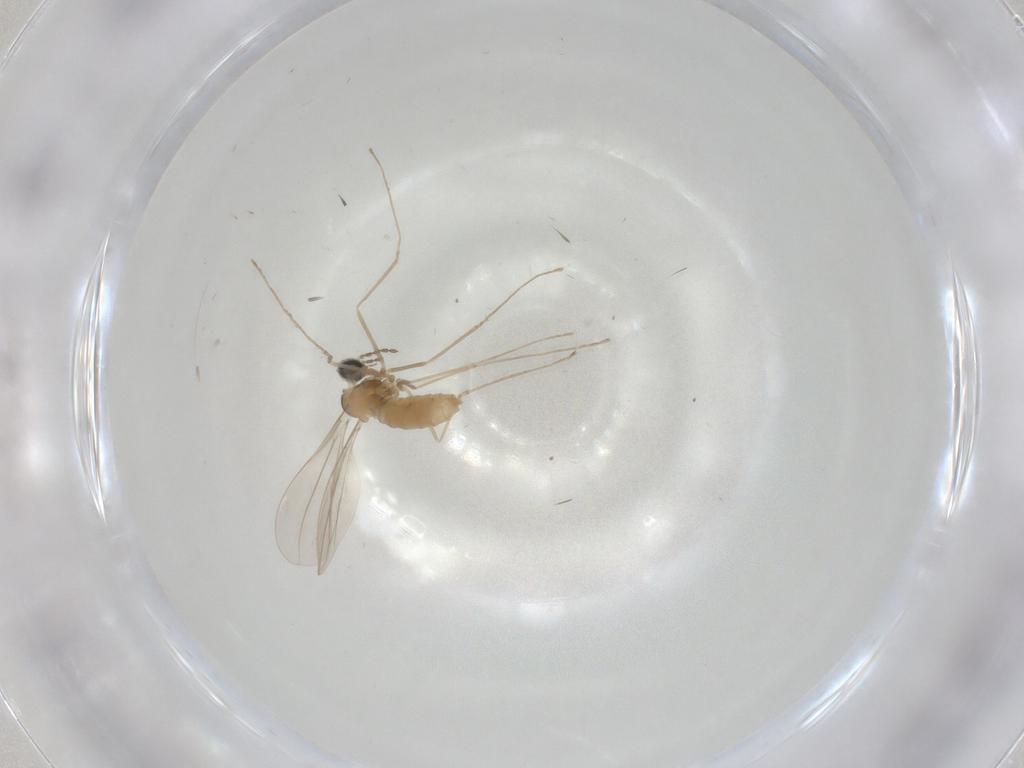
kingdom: Animalia
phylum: Arthropoda
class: Insecta
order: Diptera
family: Cecidomyiidae
